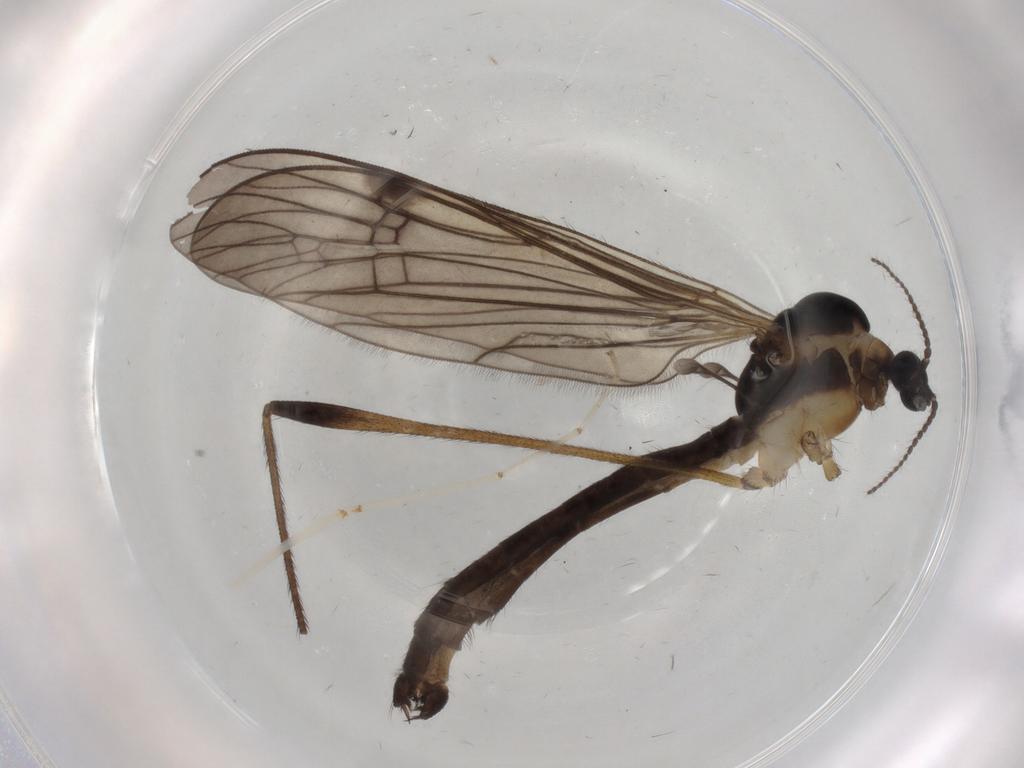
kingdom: Animalia
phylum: Arthropoda
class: Insecta
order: Diptera
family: Limoniidae
